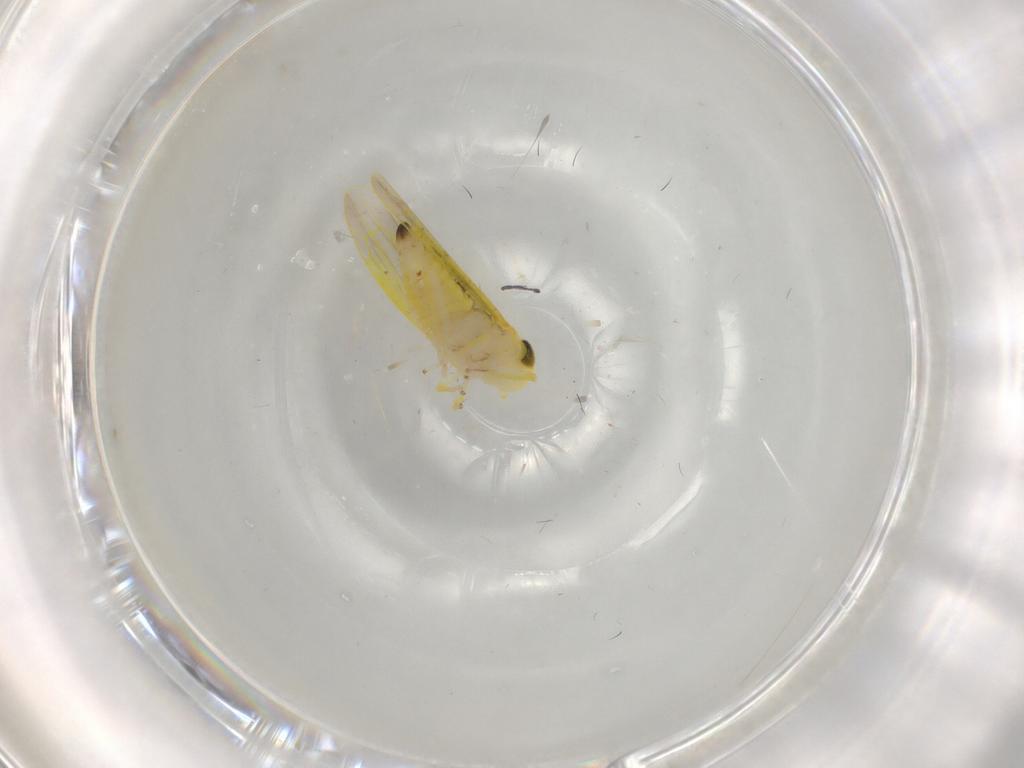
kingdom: Animalia
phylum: Arthropoda
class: Insecta
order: Hemiptera
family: Cicadellidae
